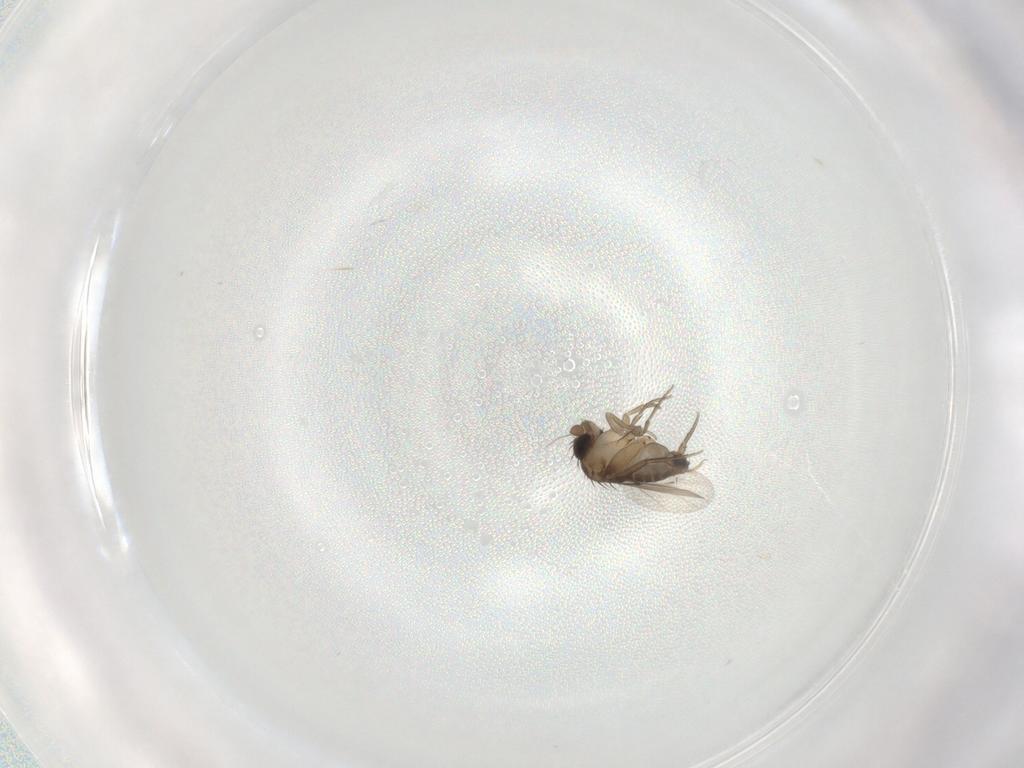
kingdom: Animalia
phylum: Arthropoda
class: Insecta
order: Diptera
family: Phoridae
